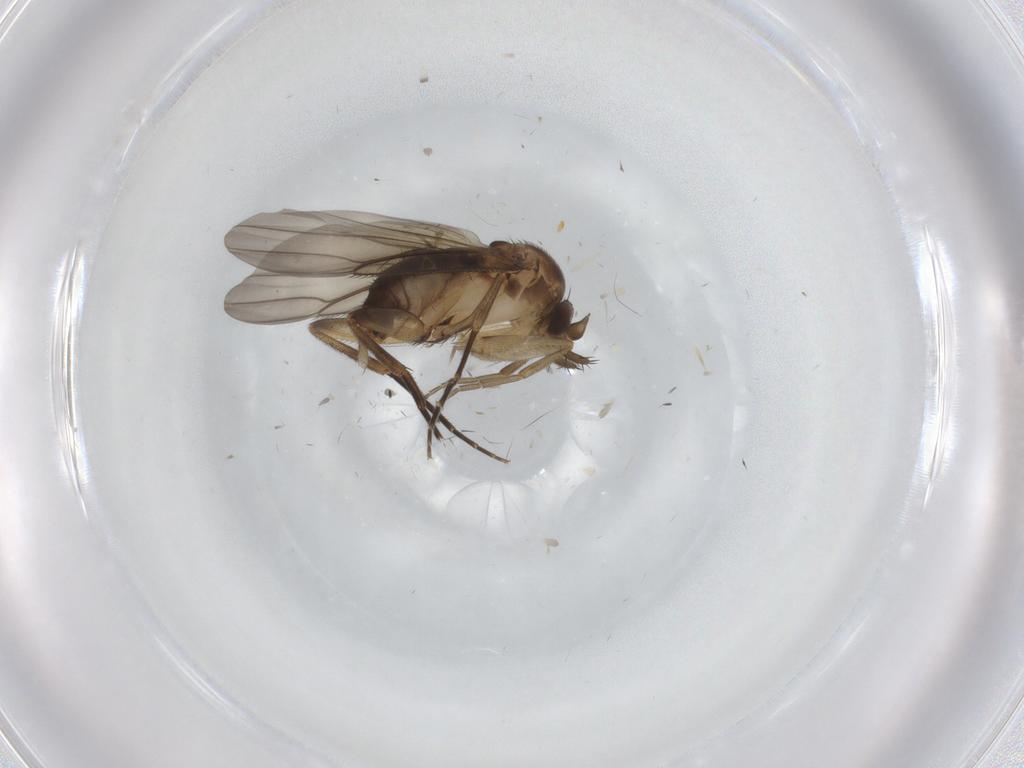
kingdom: Animalia
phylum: Arthropoda
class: Insecta
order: Diptera
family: Phoridae
